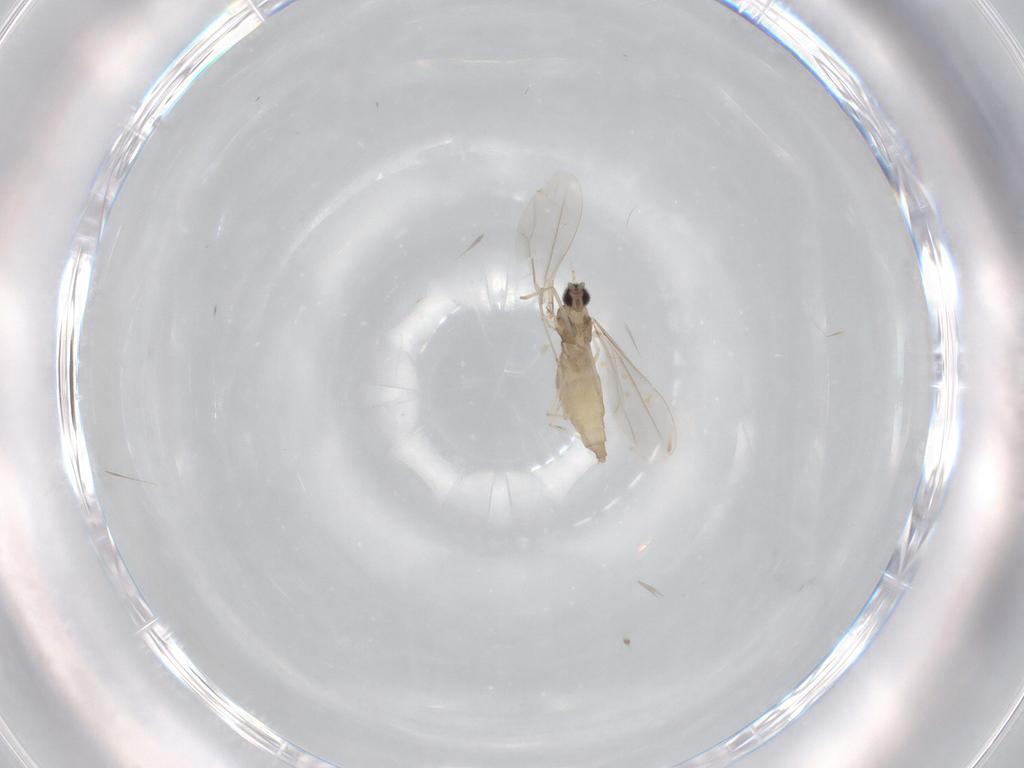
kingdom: Animalia
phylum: Arthropoda
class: Insecta
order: Diptera
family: Cecidomyiidae
